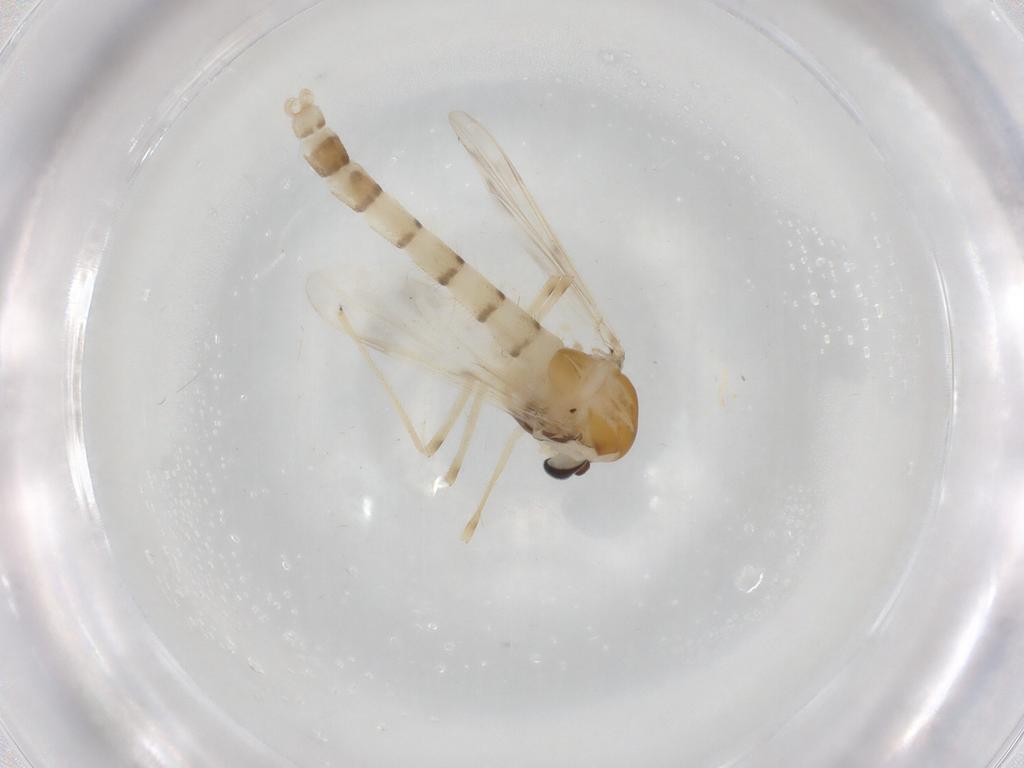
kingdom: Animalia
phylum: Arthropoda
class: Insecta
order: Diptera
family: Chironomidae
